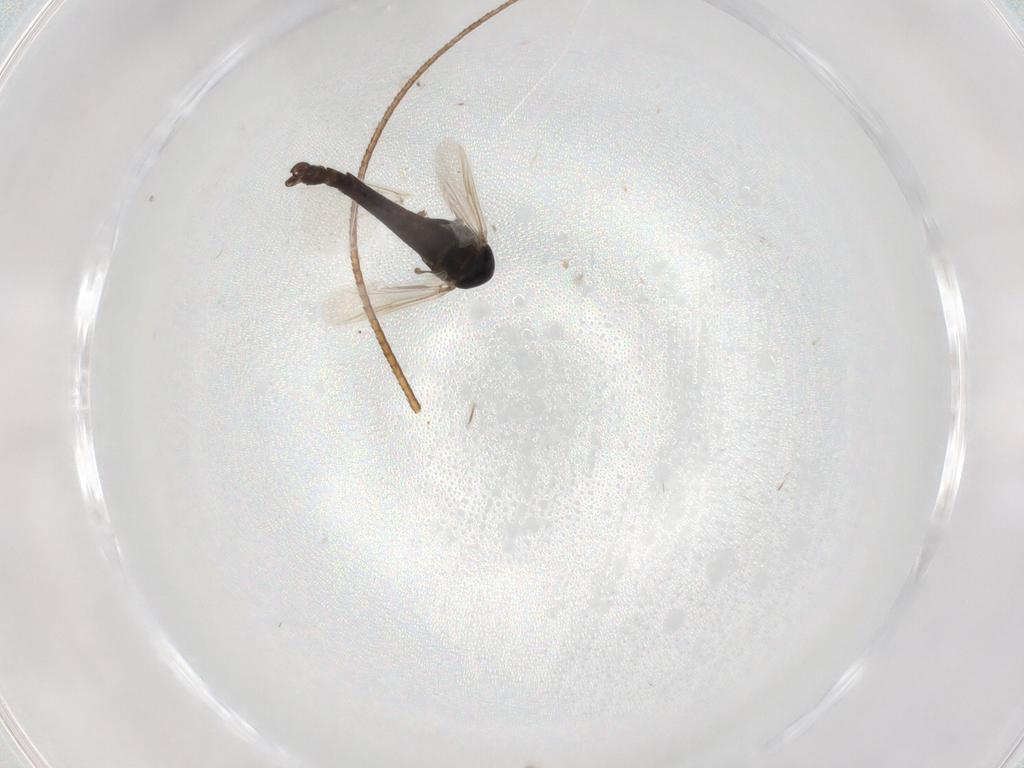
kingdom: Animalia
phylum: Arthropoda
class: Insecta
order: Diptera
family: Chironomidae
